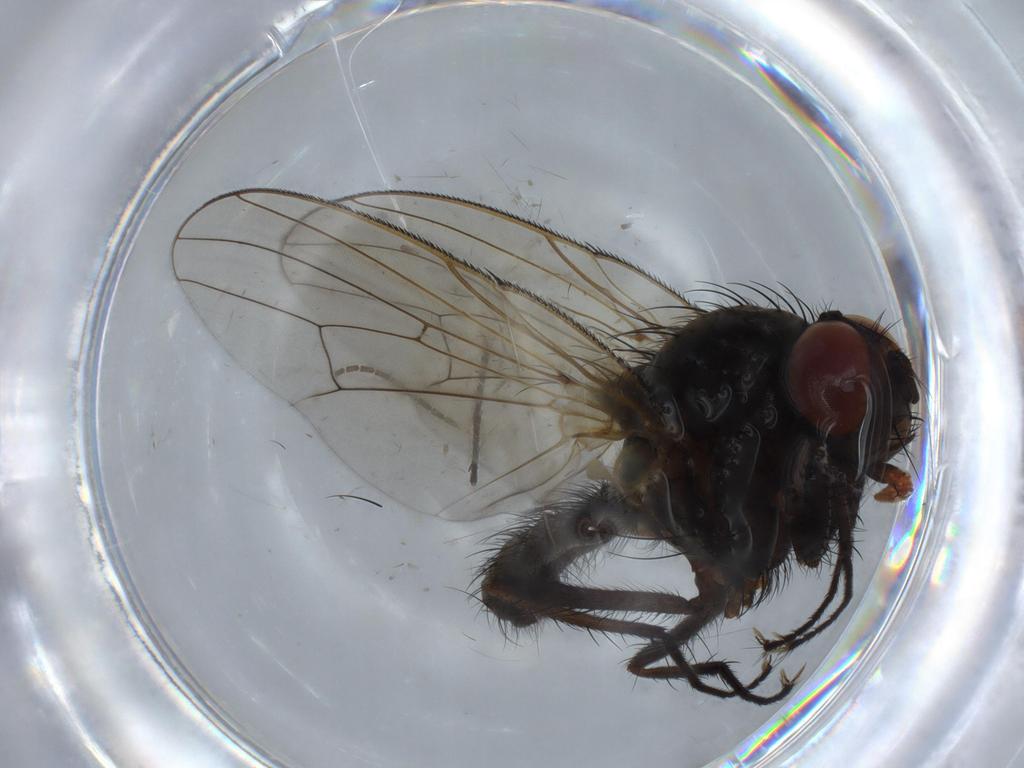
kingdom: Animalia
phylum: Arthropoda
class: Insecta
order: Diptera
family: Anthomyiidae
